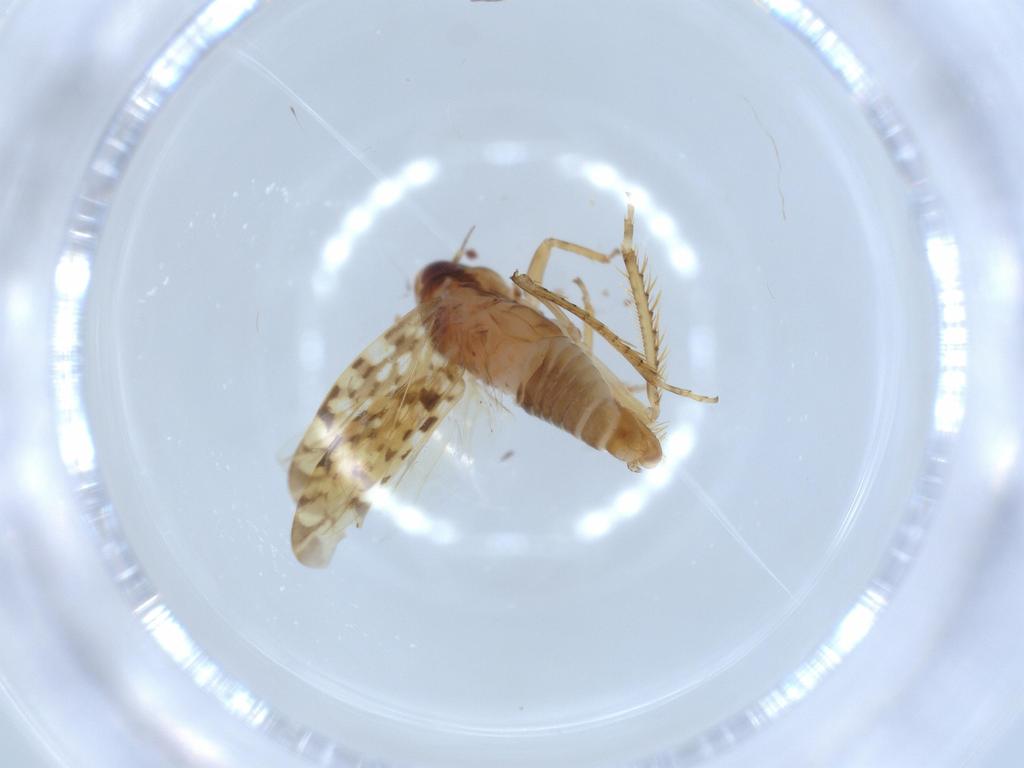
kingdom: Animalia
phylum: Arthropoda
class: Insecta
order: Hemiptera
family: Cicadellidae
